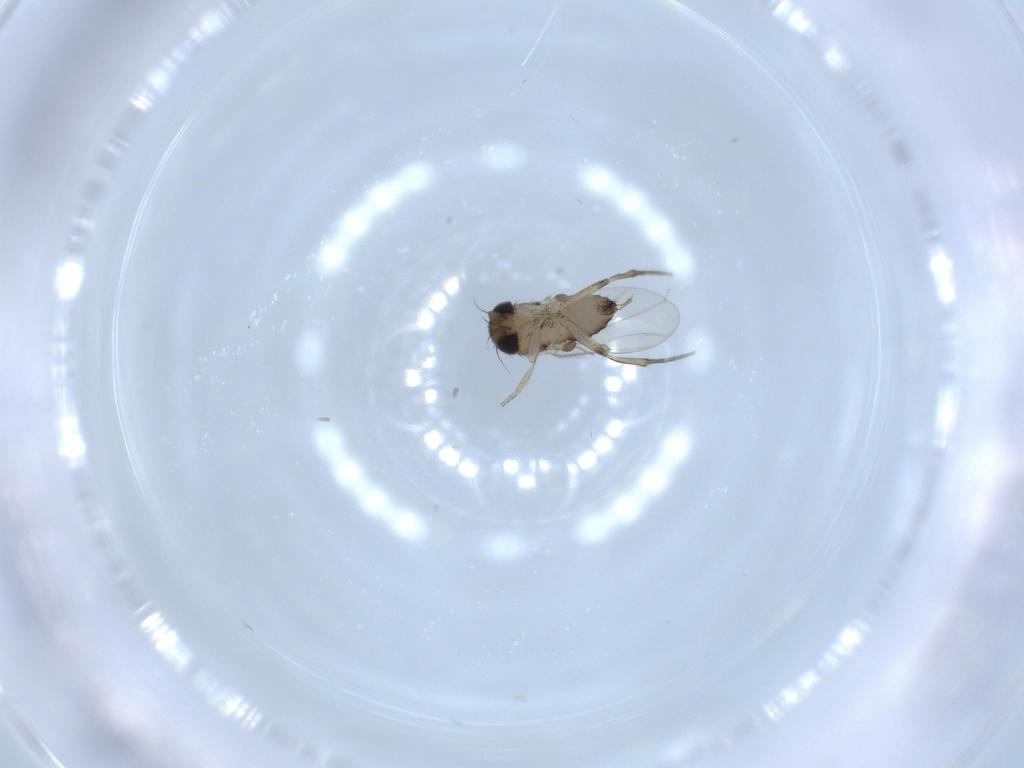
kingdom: Animalia
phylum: Arthropoda
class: Insecta
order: Diptera
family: Phoridae
